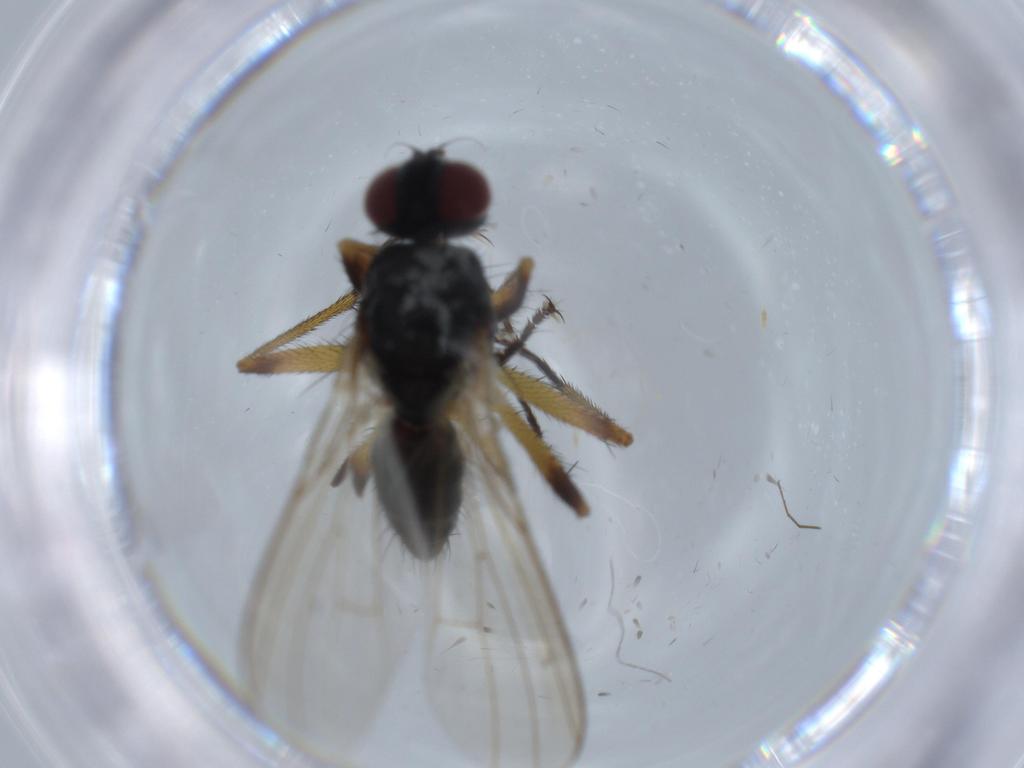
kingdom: Animalia
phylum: Arthropoda
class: Insecta
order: Diptera
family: Chironomidae
